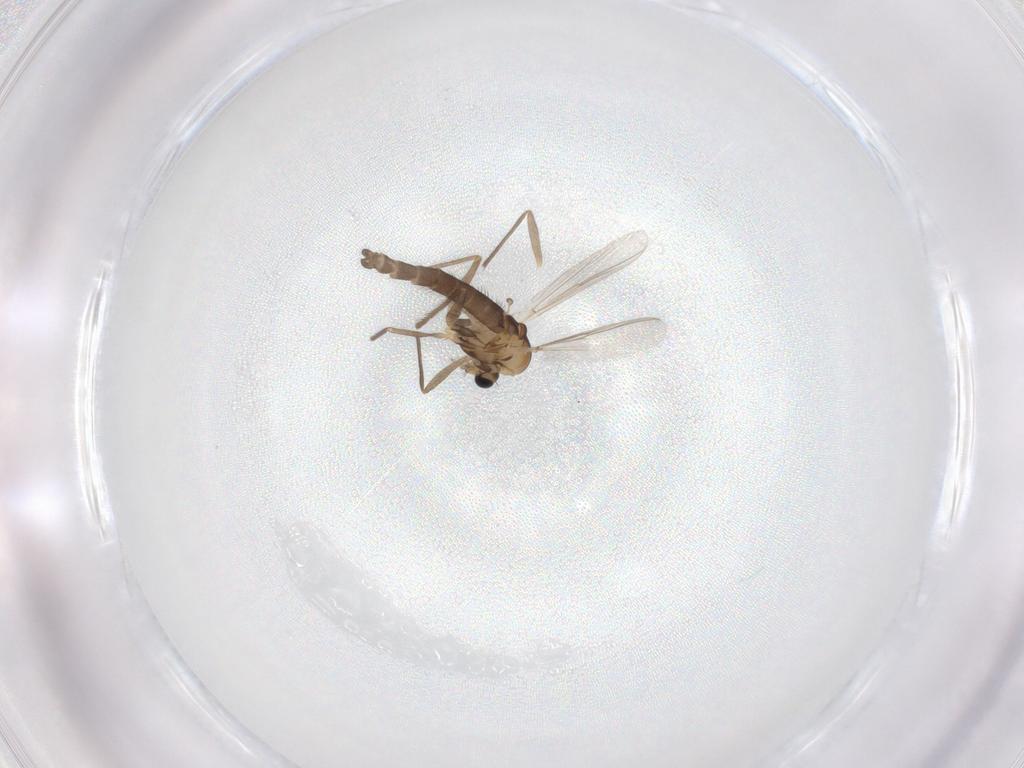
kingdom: Animalia
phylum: Arthropoda
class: Insecta
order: Diptera
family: Chironomidae
